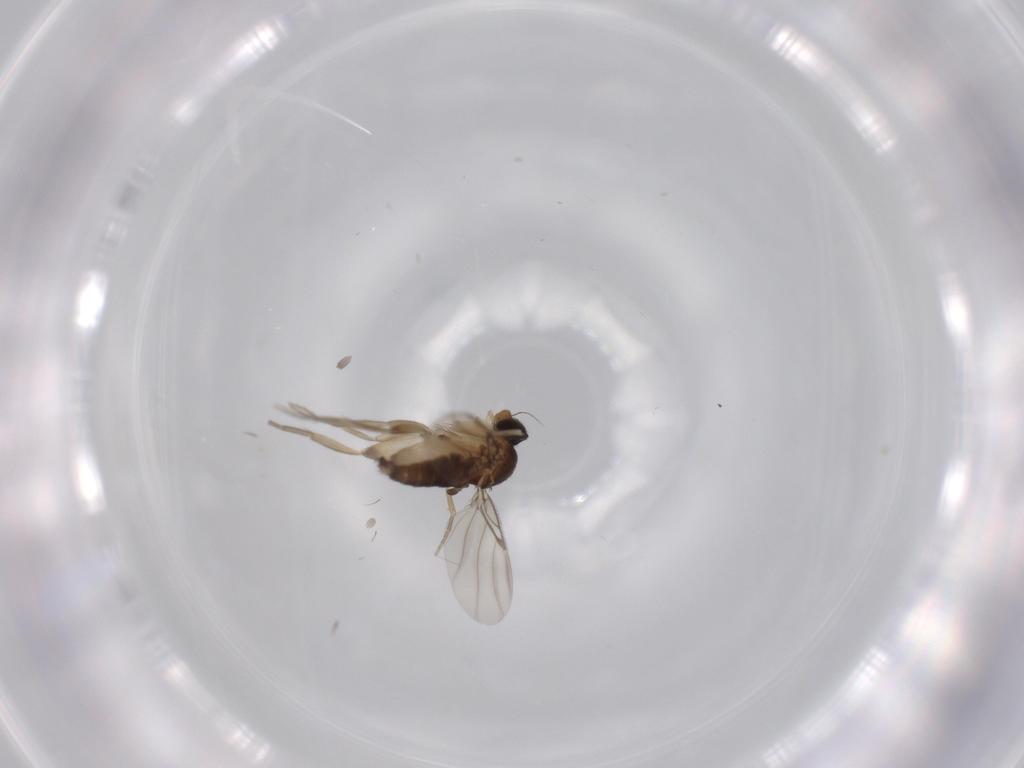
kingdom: Animalia
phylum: Arthropoda
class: Insecta
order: Diptera
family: Phoridae
